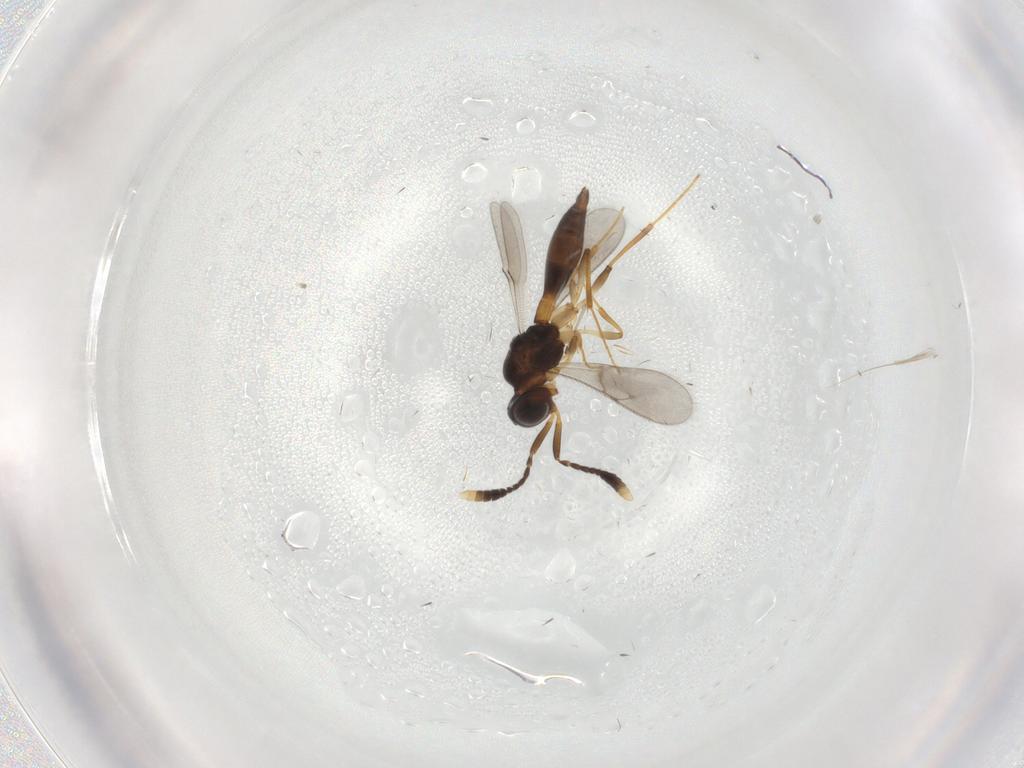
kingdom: Animalia
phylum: Arthropoda
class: Insecta
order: Hymenoptera
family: Scelionidae
